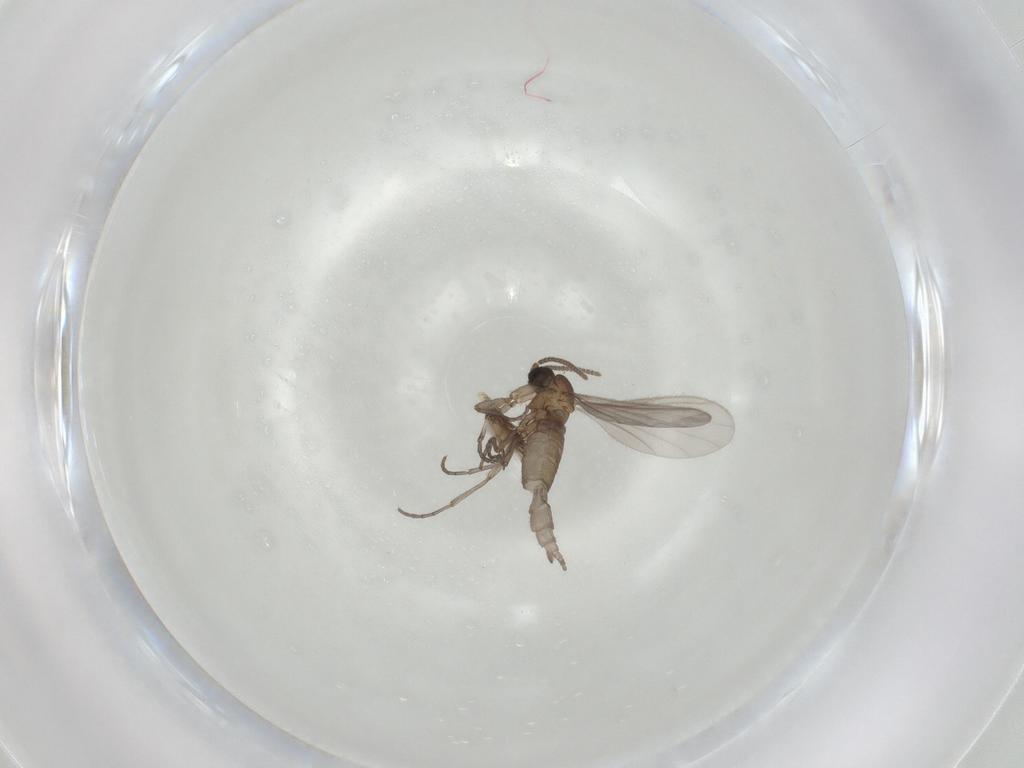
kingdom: Animalia
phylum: Arthropoda
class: Insecta
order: Diptera
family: Sciaridae
